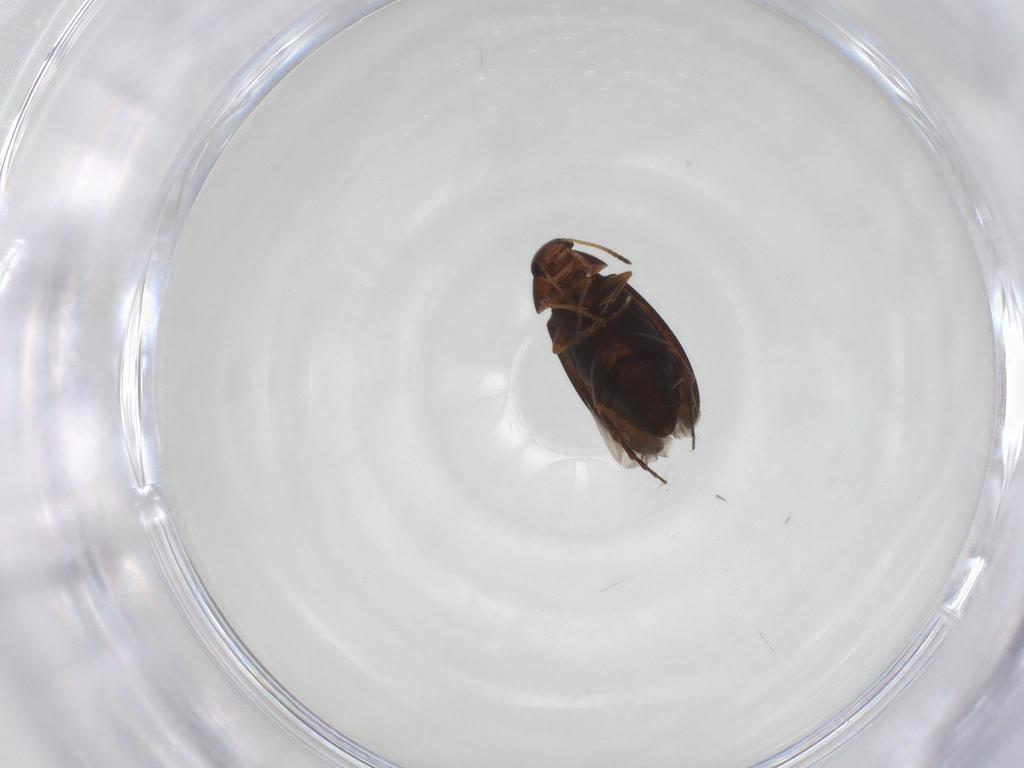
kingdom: Animalia
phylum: Arthropoda
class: Insecta
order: Coleoptera
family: Scraptiidae
